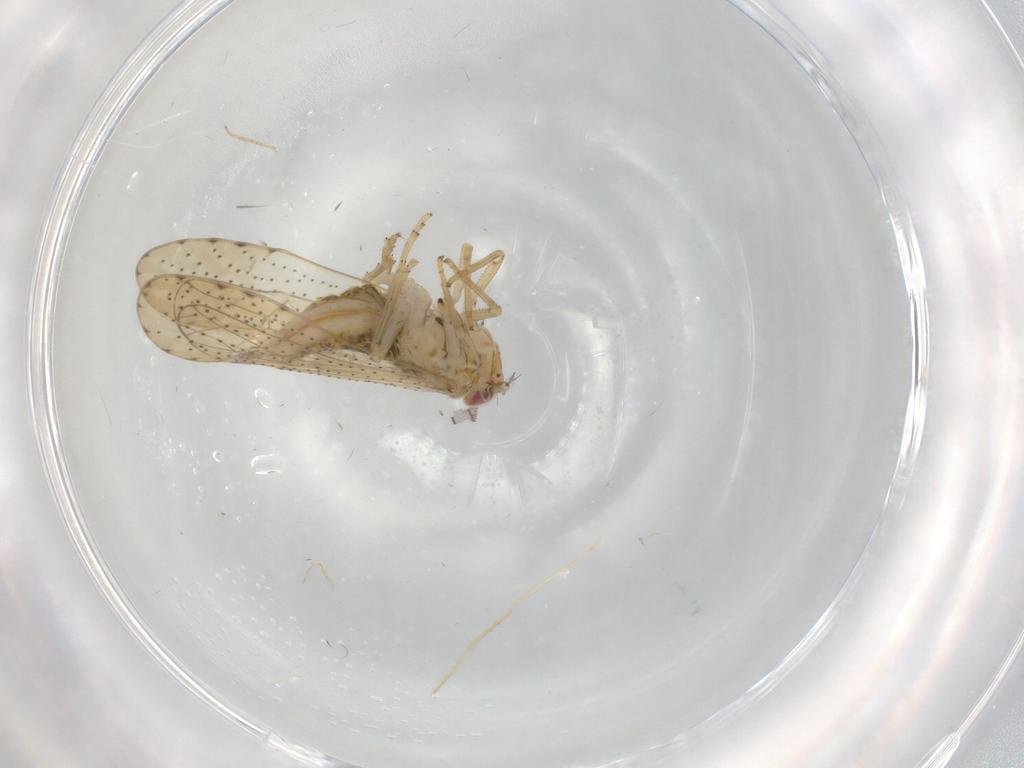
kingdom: Animalia
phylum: Arthropoda
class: Insecta
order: Hemiptera
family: Delphacidae
